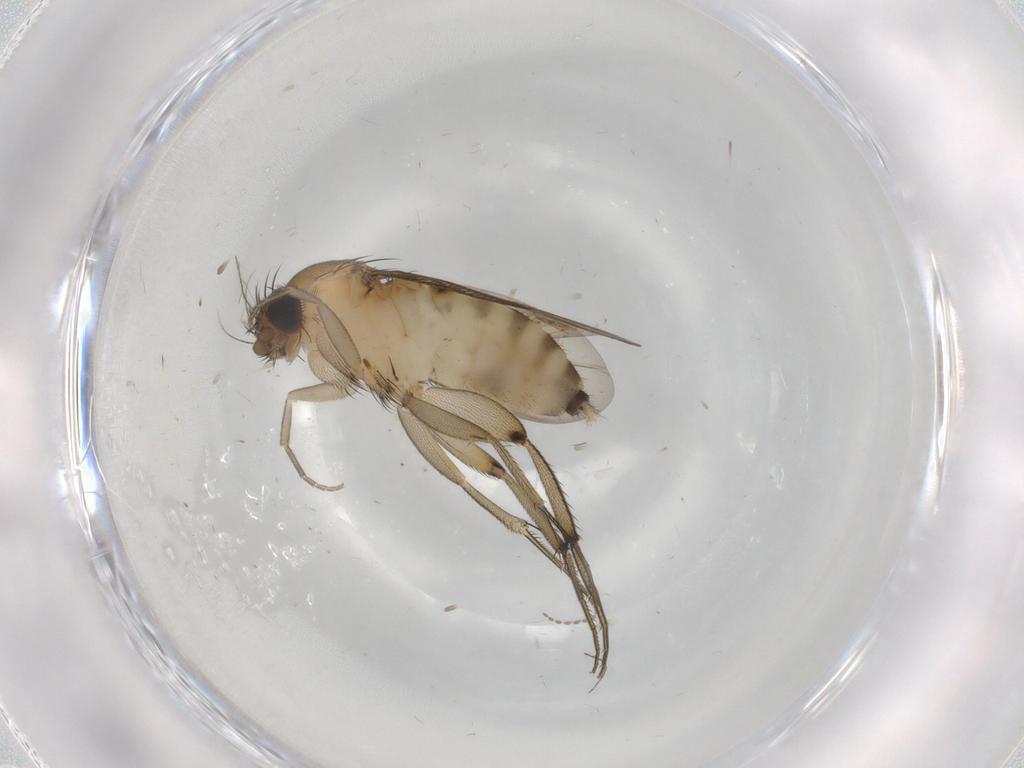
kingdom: Animalia
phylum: Arthropoda
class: Insecta
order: Diptera
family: Phoridae
